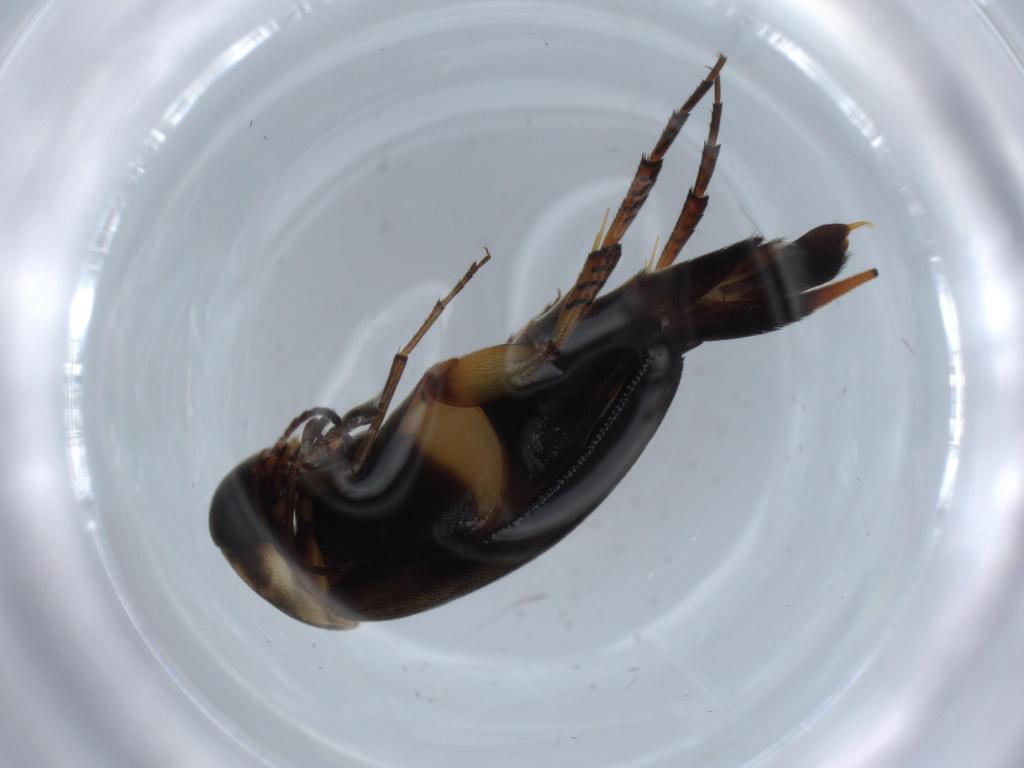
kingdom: Animalia
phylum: Arthropoda
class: Insecta
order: Coleoptera
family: Mordellidae
